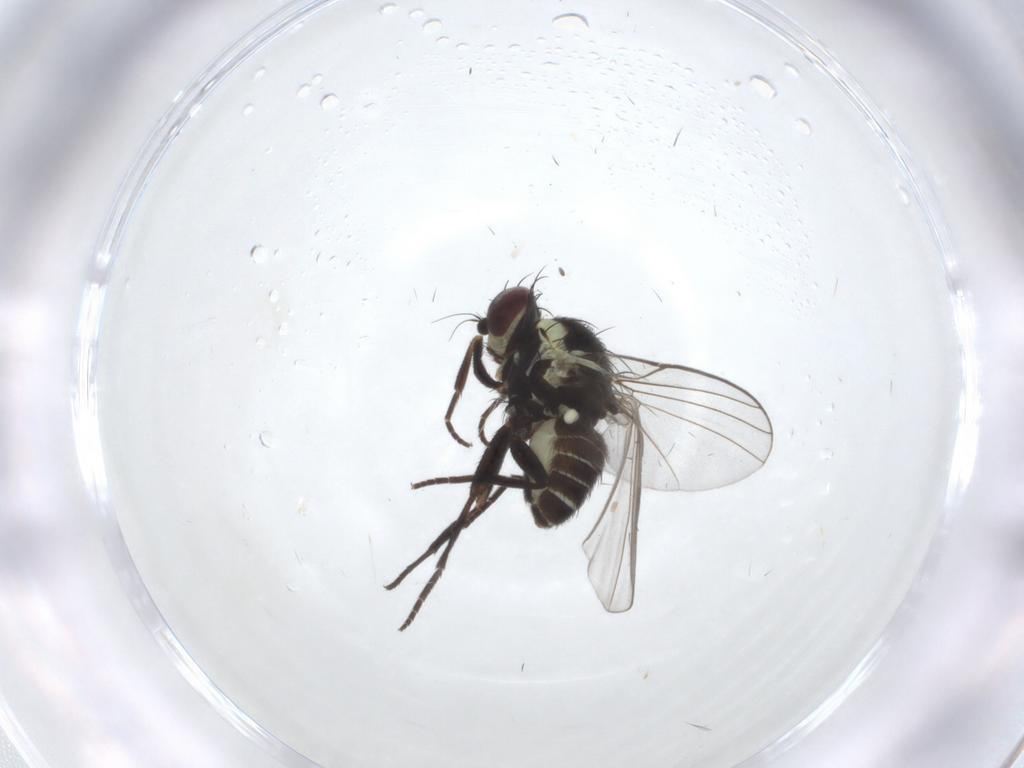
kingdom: Animalia
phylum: Arthropoda
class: Insecta
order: Diptera
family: Agromyzidae
